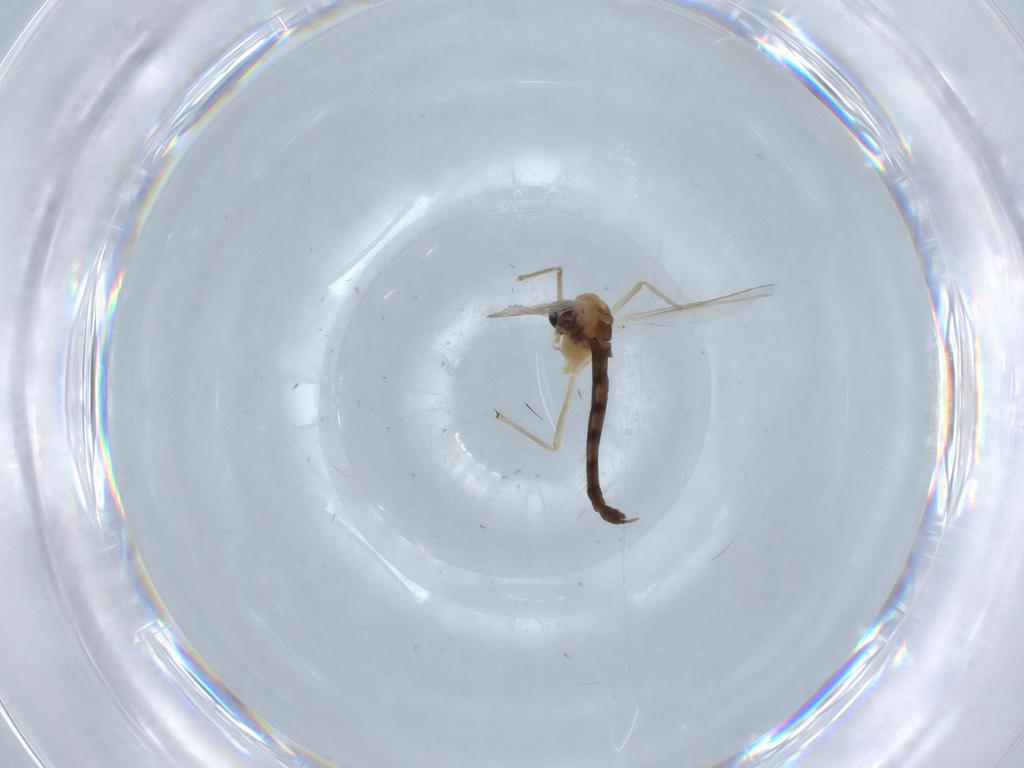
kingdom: Animalia
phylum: Arthropoda
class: Insecta
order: Diptera
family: Chironomidae
